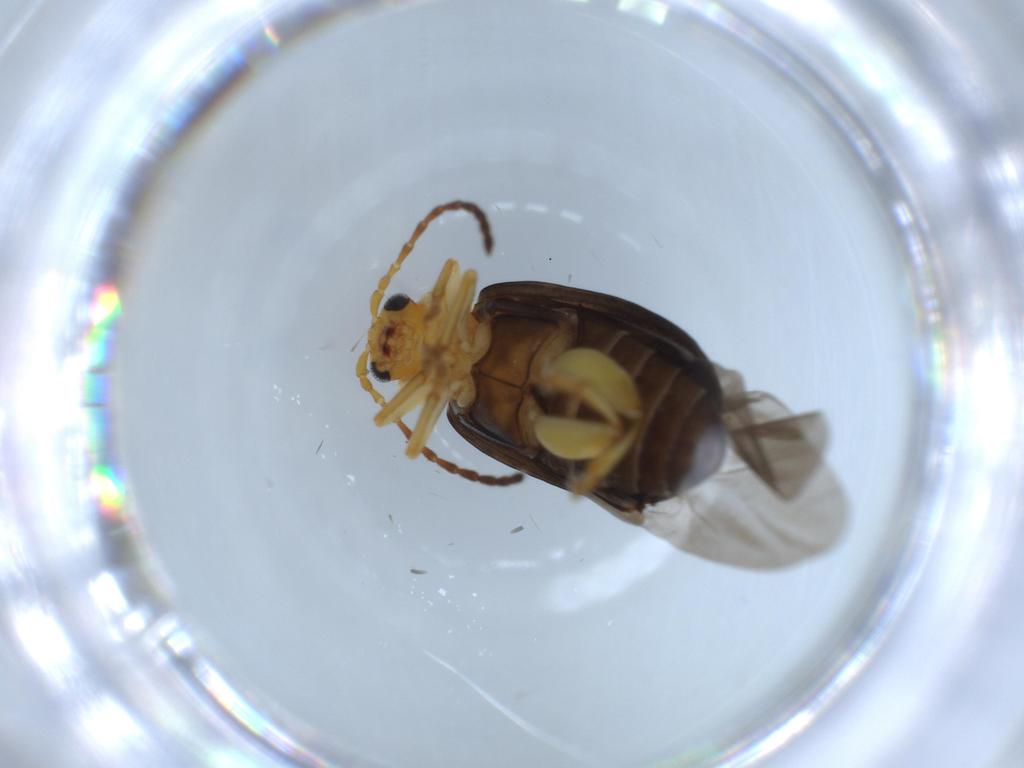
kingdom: Animalia
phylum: Arthropoda
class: Insecta
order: Coleoptera
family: Chrysomelidae
